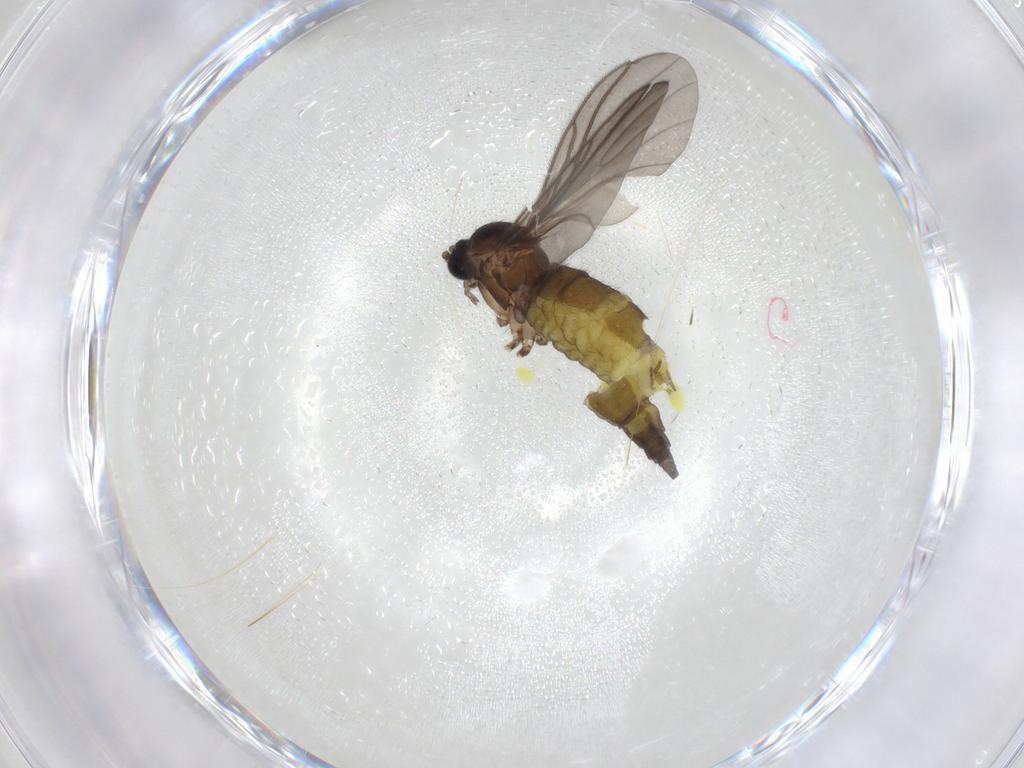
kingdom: Animalia
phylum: Arthropoda
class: Insecta
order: Diptera
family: Sciaridae
